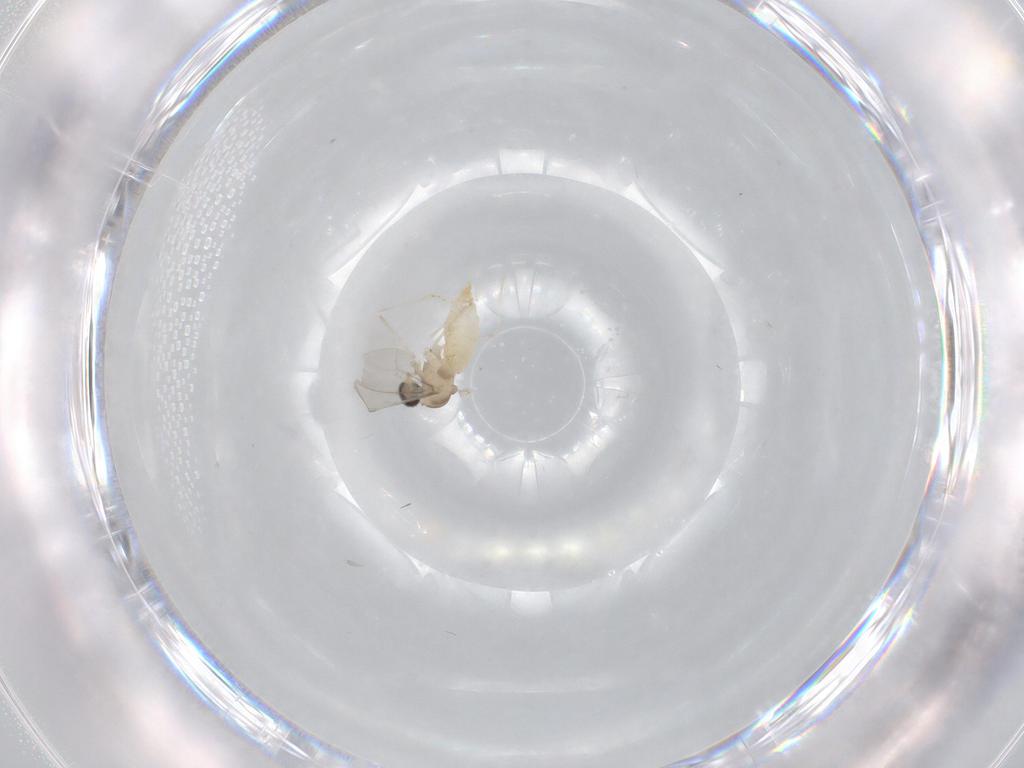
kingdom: Animalia
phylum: Arthropoda
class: Insecta
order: Diptera
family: Cecidomyiidae
